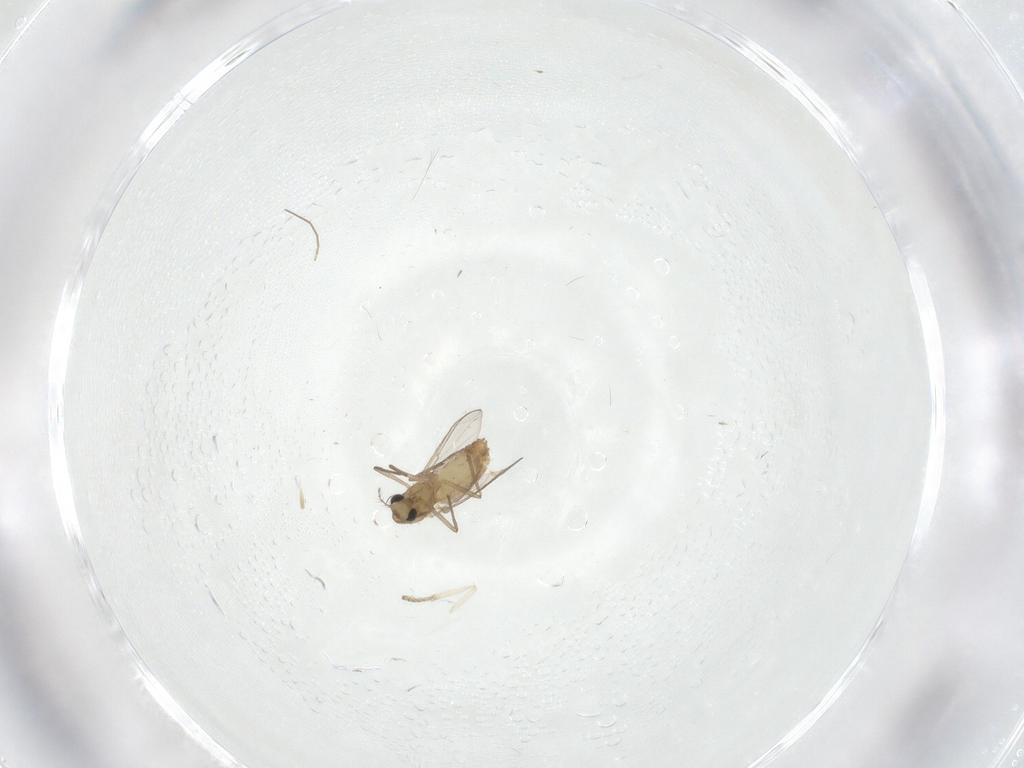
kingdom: Animalia
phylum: Arthropoda
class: Insecta
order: Diptera
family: Psychodidae
